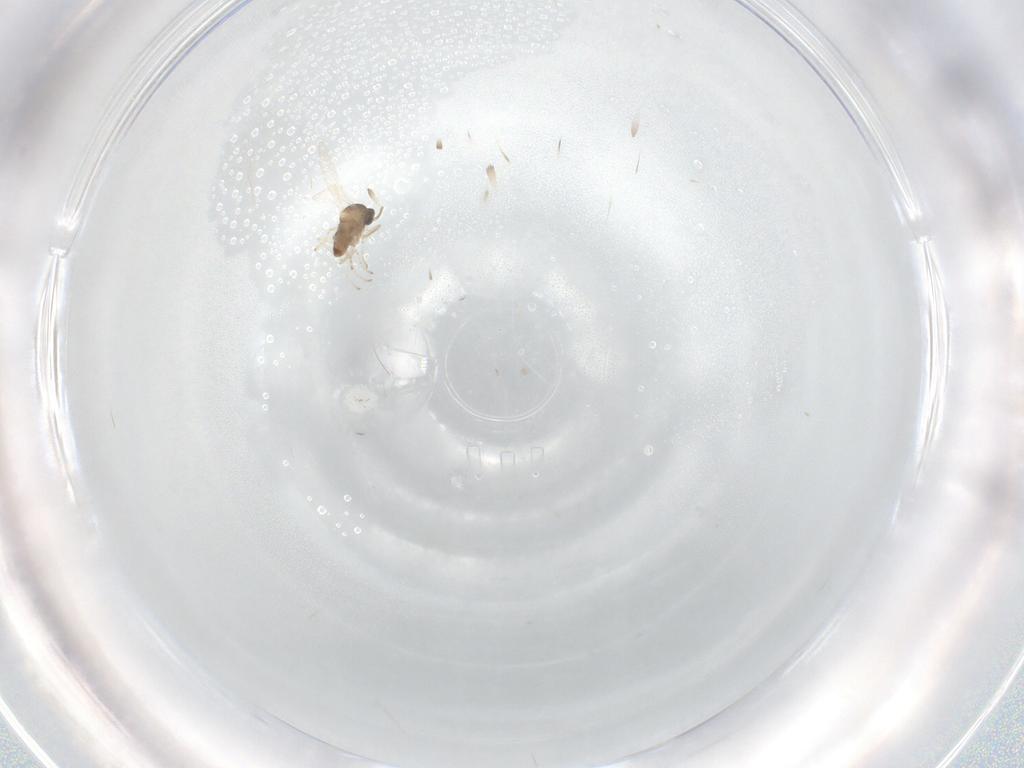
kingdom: Animalia
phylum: Arthropoda
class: Insecta
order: Diptera
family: Cecidomyiidae
